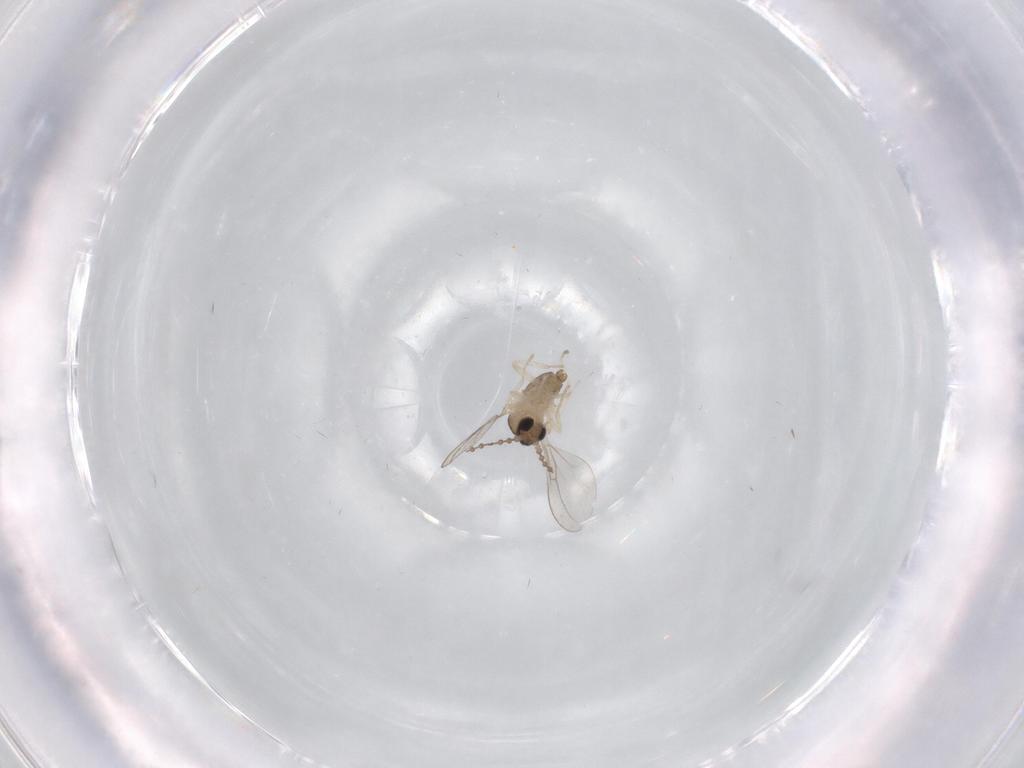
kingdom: Animalia
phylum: Arthropoda
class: Insecta
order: Diptera
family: Cecidomyiidae
